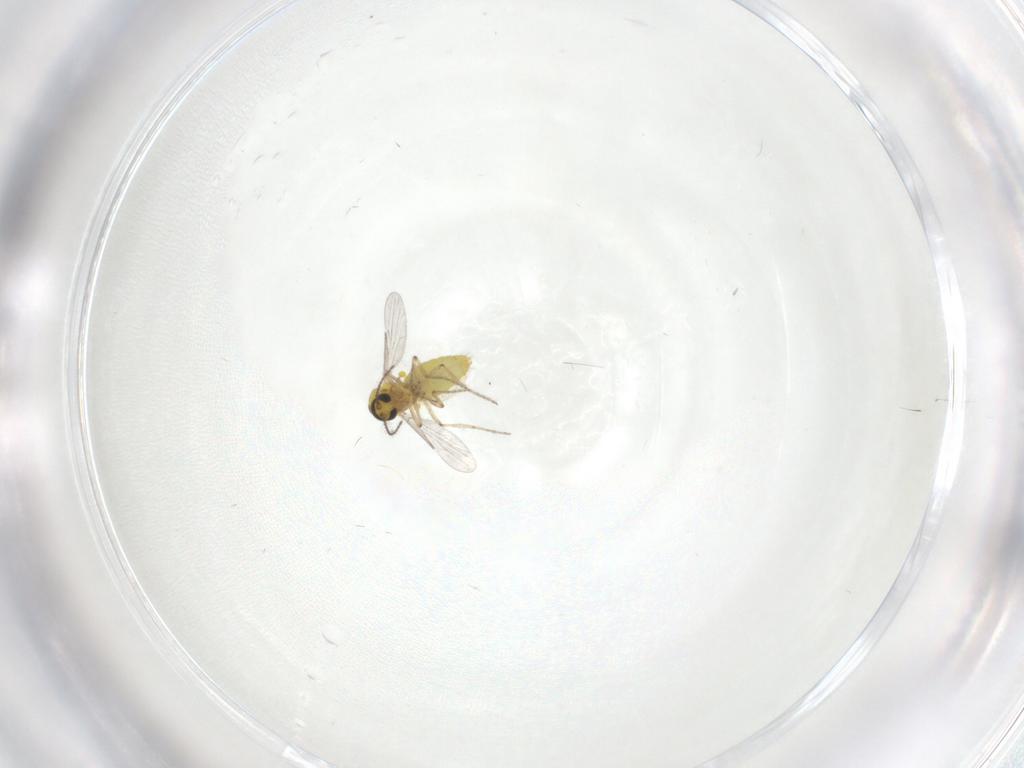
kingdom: Animalia
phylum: Arthropoda
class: Insecta
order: Diptera
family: Ceratopogonidae
